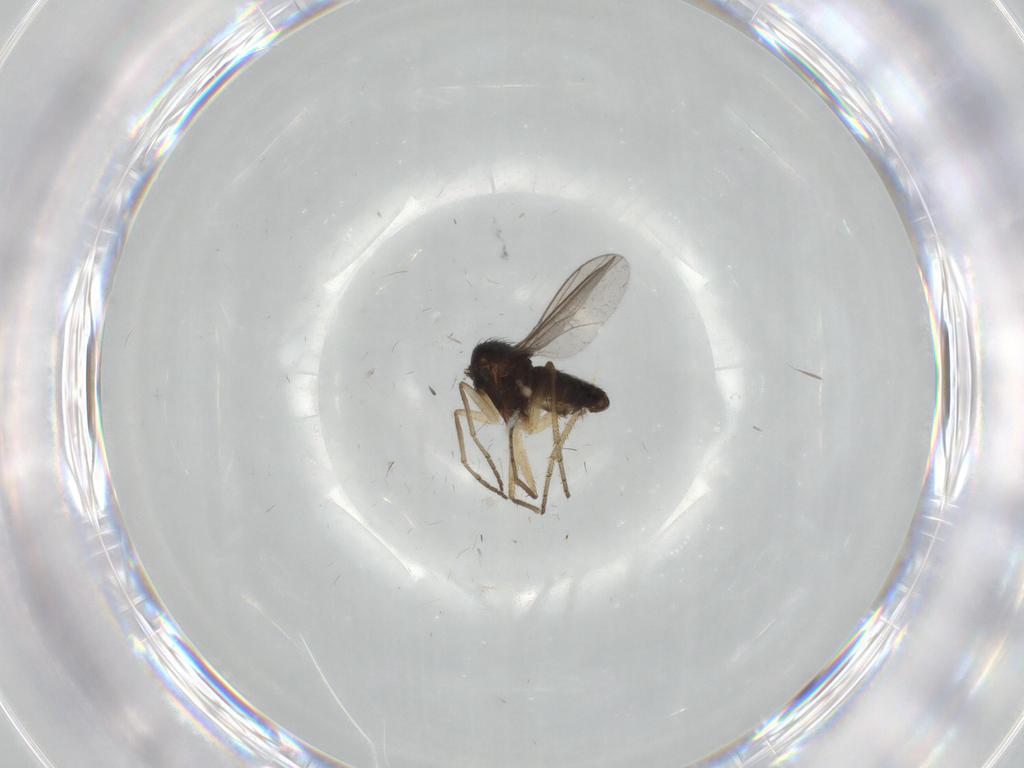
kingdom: Animalia
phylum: Arthropoda
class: Insecta
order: Diptera
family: Dolichopodidae
